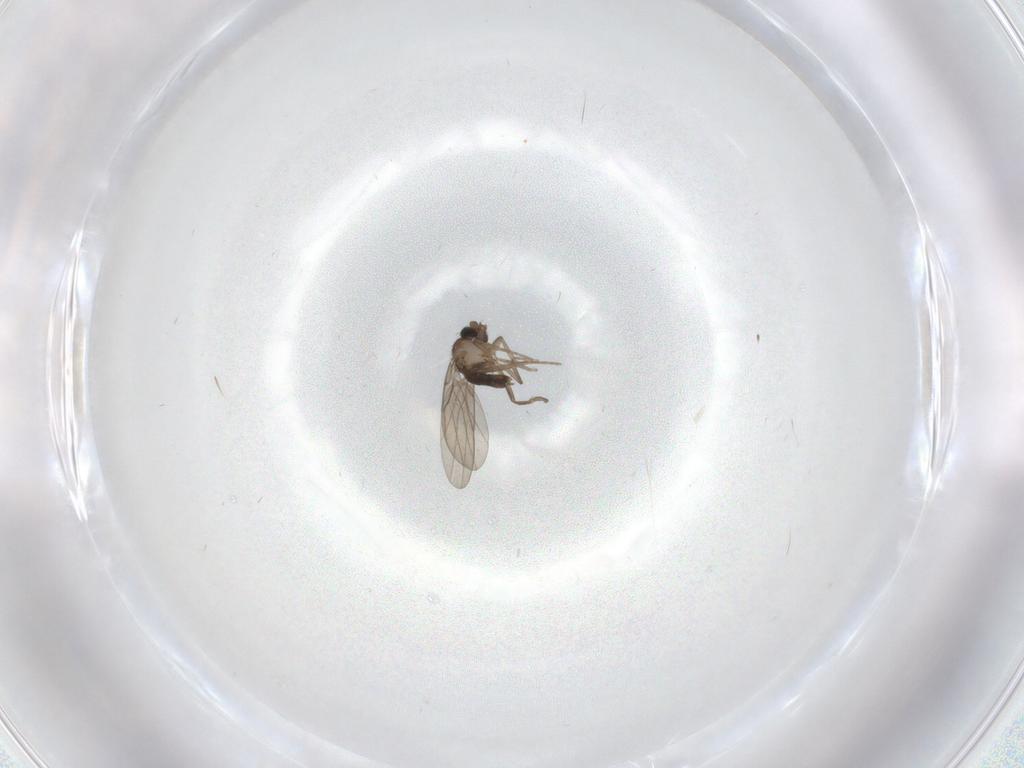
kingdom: Animalia
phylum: Arthropoda
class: Insecta
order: Diptera
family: Phoridae
